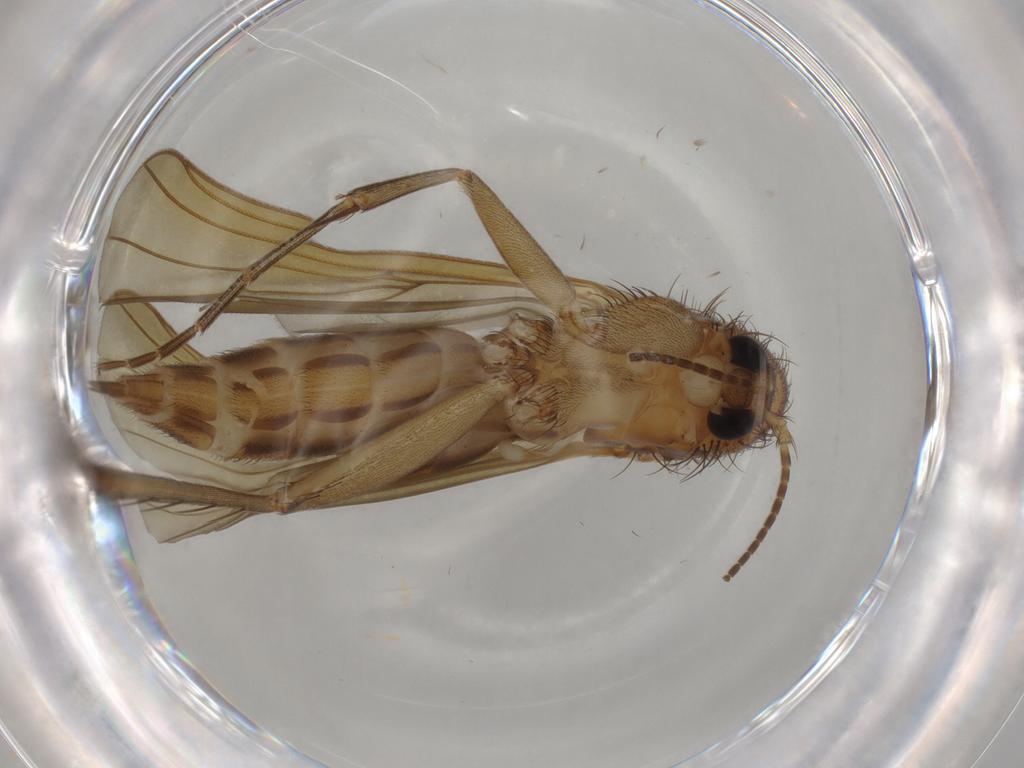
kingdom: Animalia
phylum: Arthropoda
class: Insecta
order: Diptera
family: Mycetophilidae
